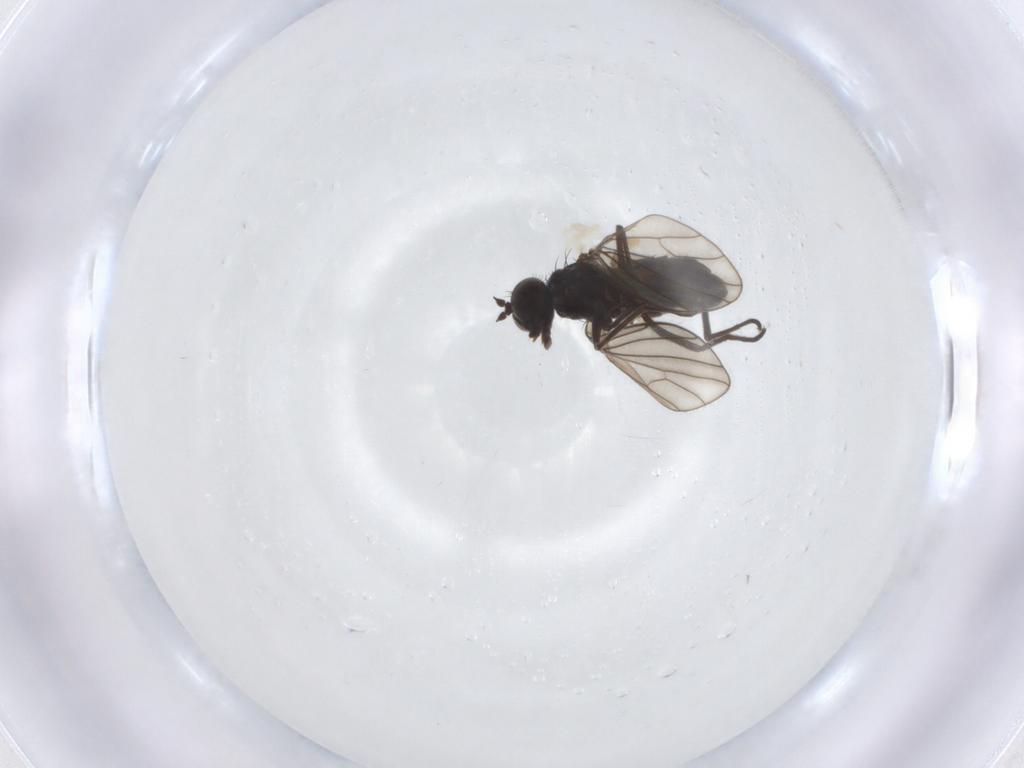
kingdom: Animalia
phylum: Arthropoda
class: Insecta
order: Diptera
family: Dolichopodidae
